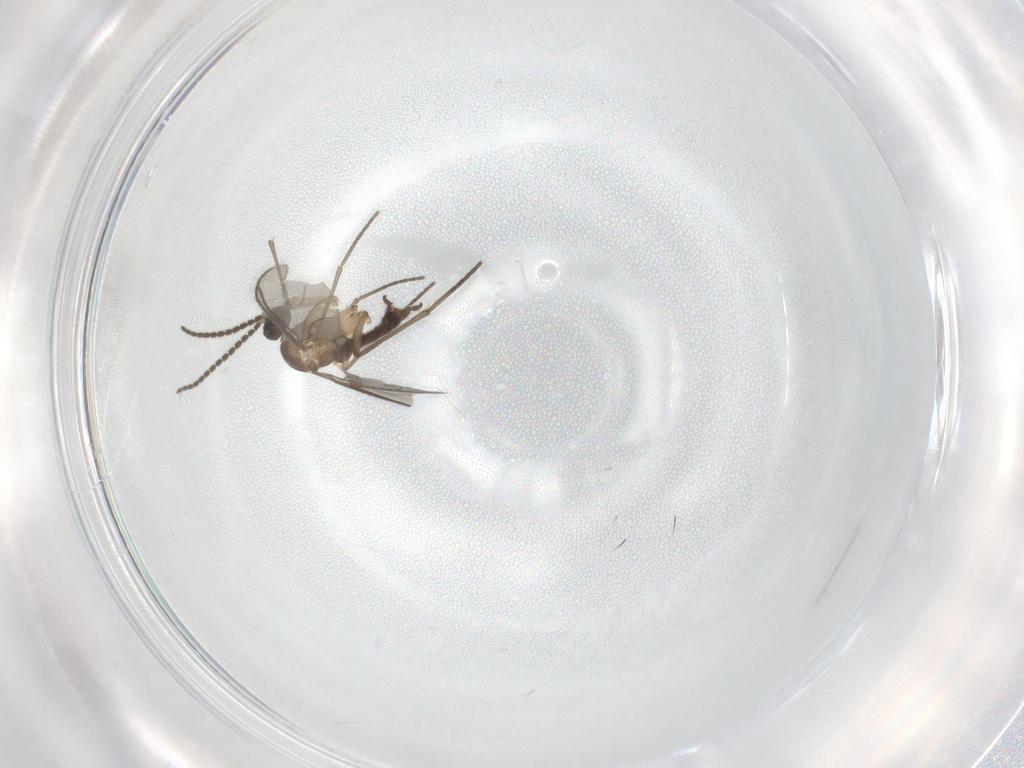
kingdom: Animalia
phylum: Arthropoda
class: Insecta
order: Diptera
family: Sciaridae
